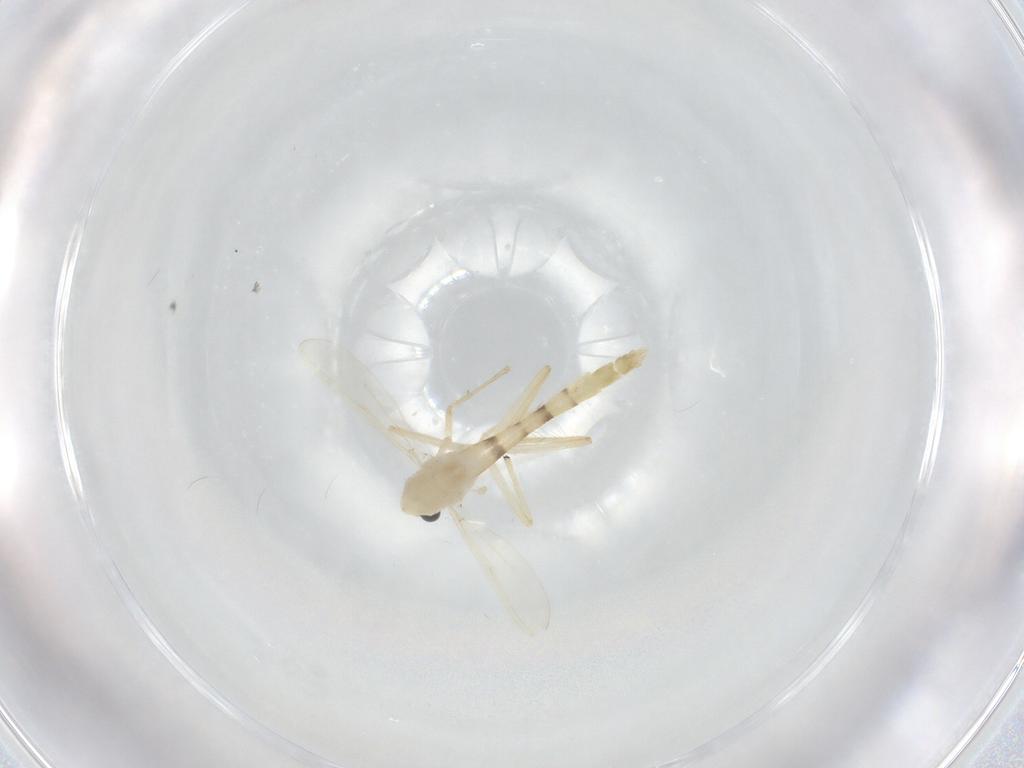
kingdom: Animalia
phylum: Arthropoda
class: Insecta
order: Diptera
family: Chironomidae
